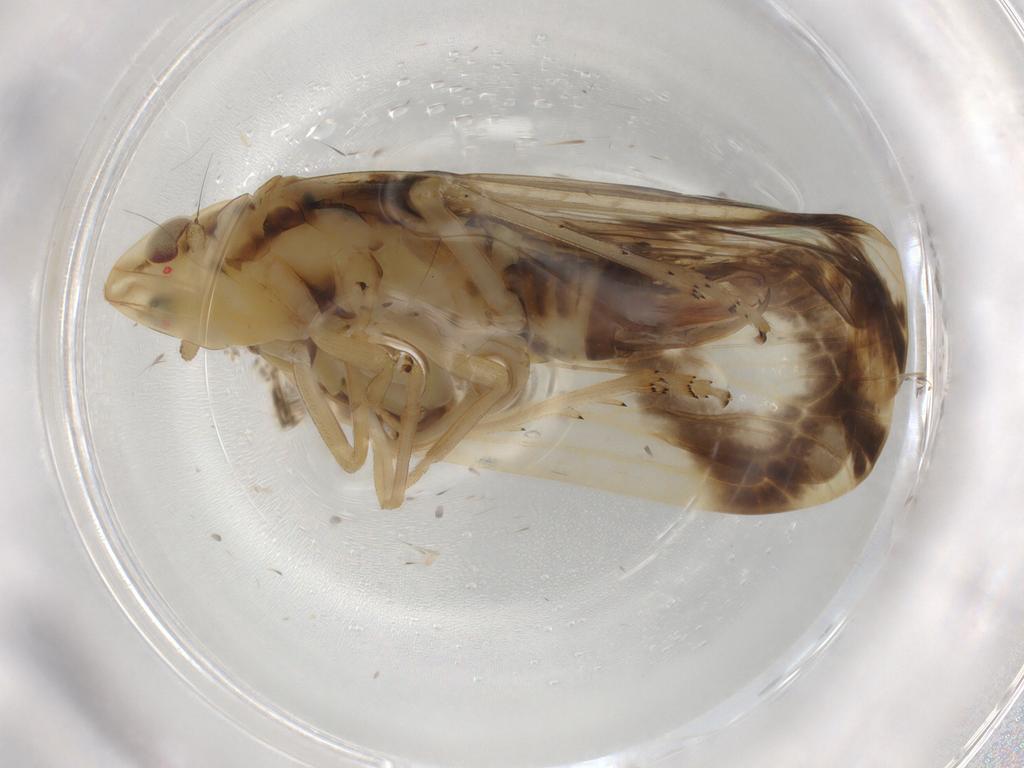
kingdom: Animalia
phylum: Arthropoda
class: Insecta
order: Hemiptera
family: Tropiduchidae
